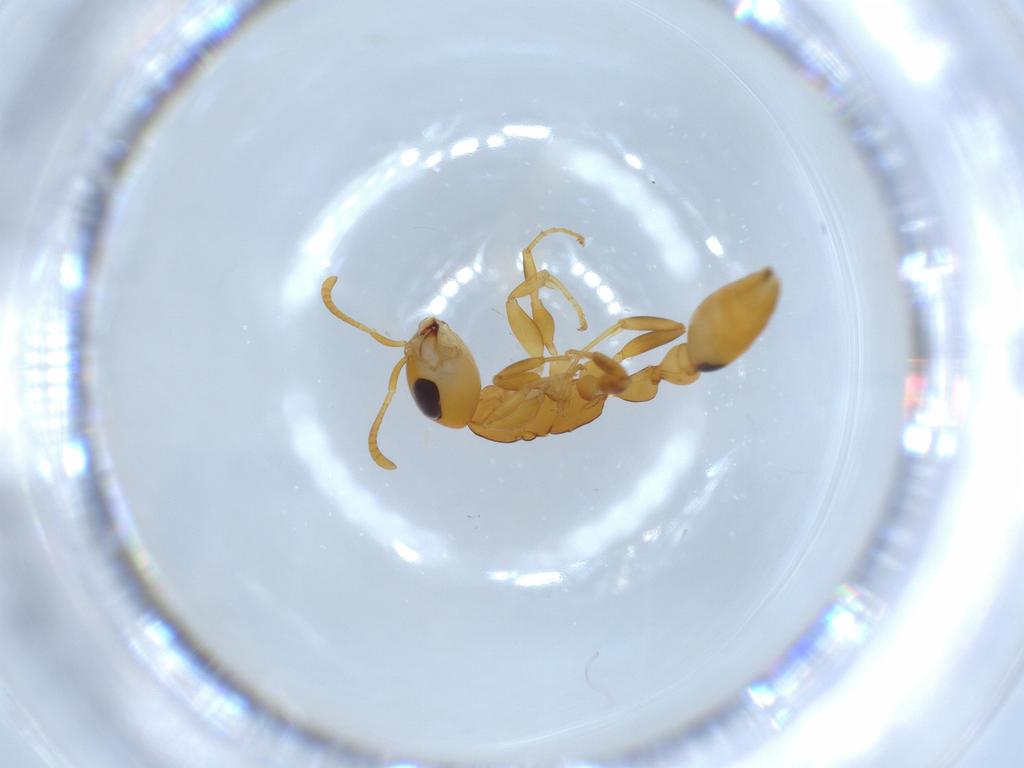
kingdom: Animalia
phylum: Arthropoda
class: Insecta
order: Hymenoptera
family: Formicidae
